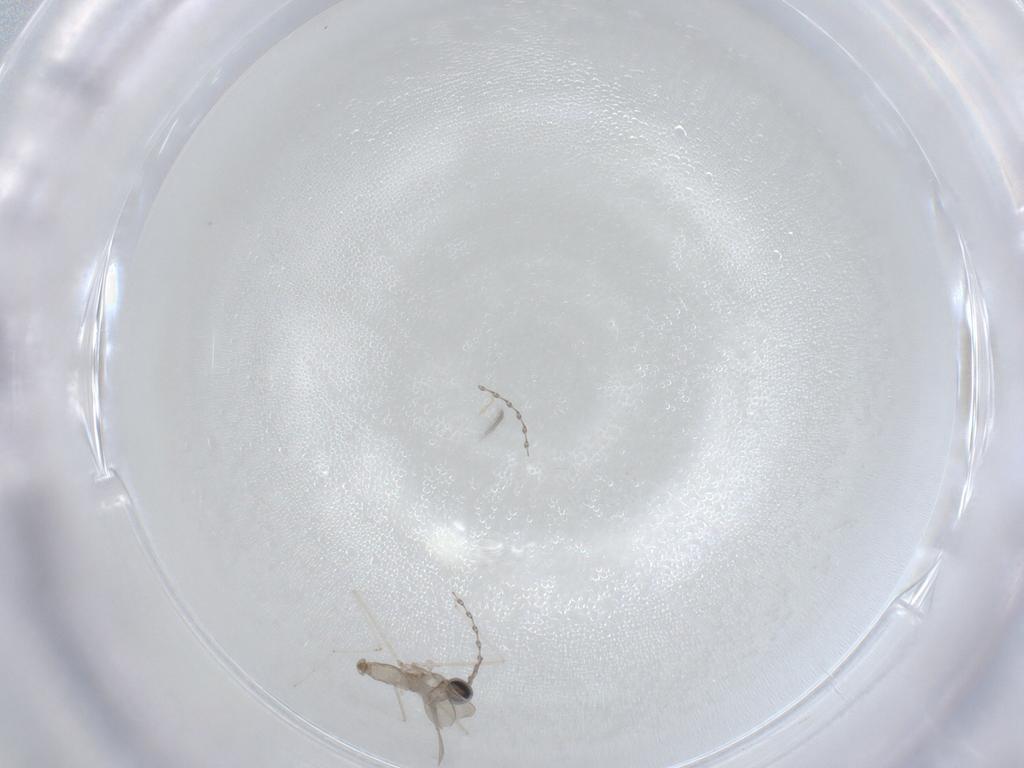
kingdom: Animalia
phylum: Arthropoda
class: Insecta
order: Diptera
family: Cecidomyiidae
